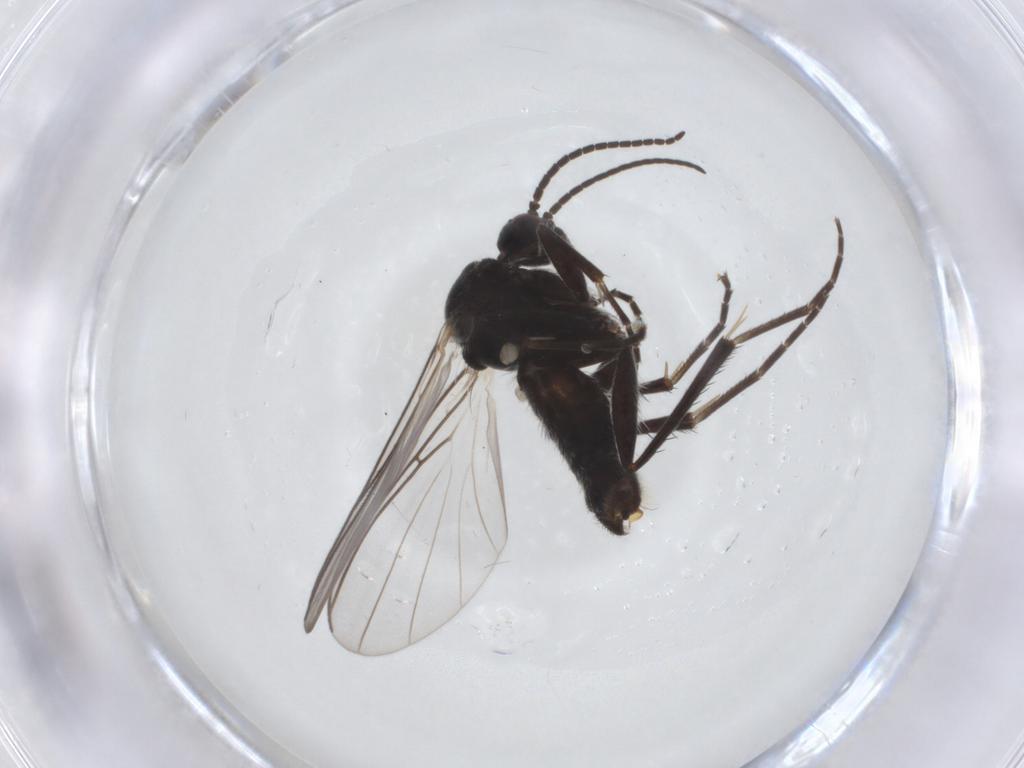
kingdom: Animalia
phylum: Arthropoda
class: Insecta
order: Diptera
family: Mycetophilidae
